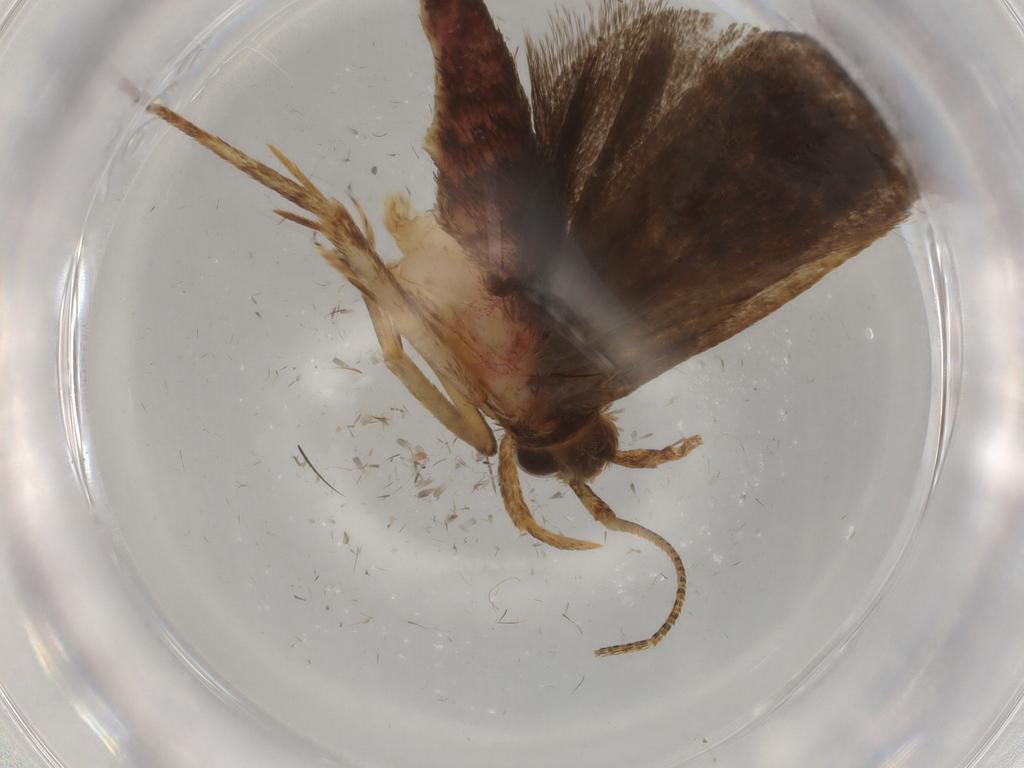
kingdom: Animalia
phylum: Arthropoda
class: Insecta
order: Lepidoptera
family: Autostichidae
